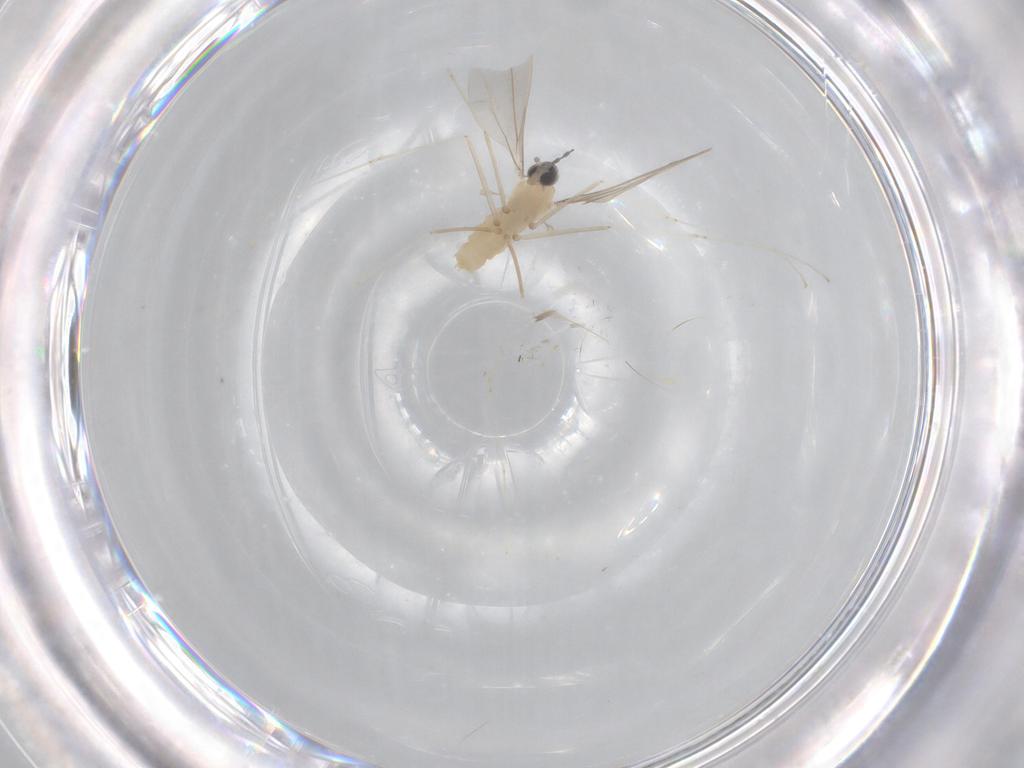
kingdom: Animalia
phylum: Arthropoda
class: Insecta
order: Diptera
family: Cecidomyiidae
